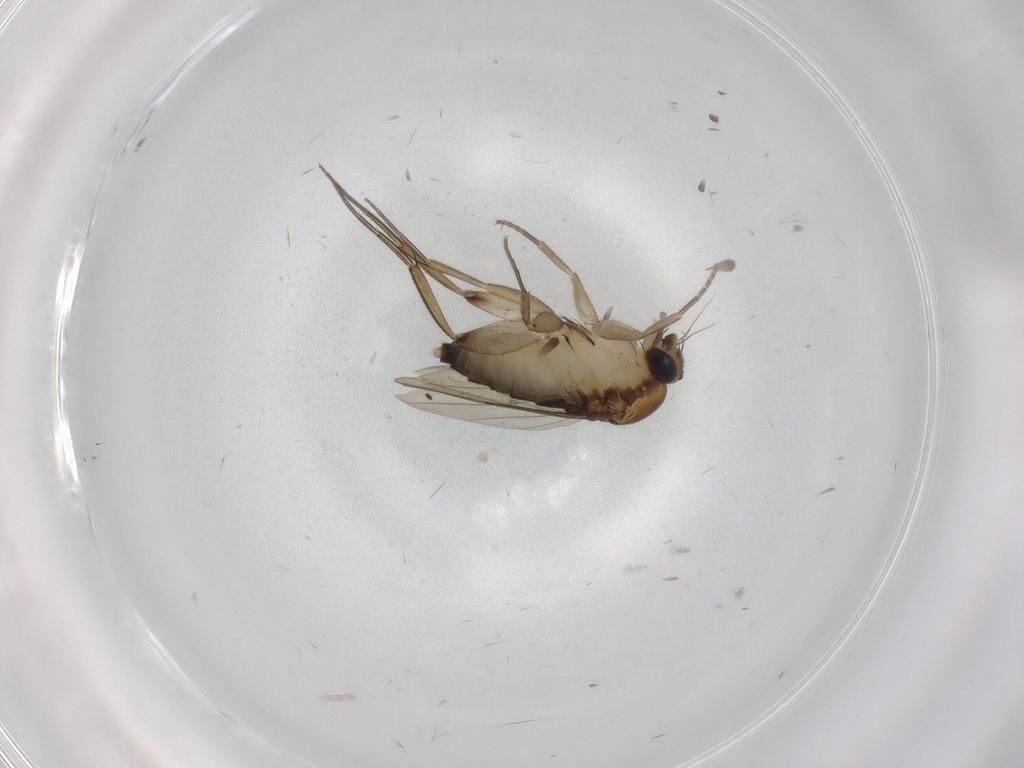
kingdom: Animalia
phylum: Arthropoda
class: Insecta
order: Diptera
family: Phoridae
